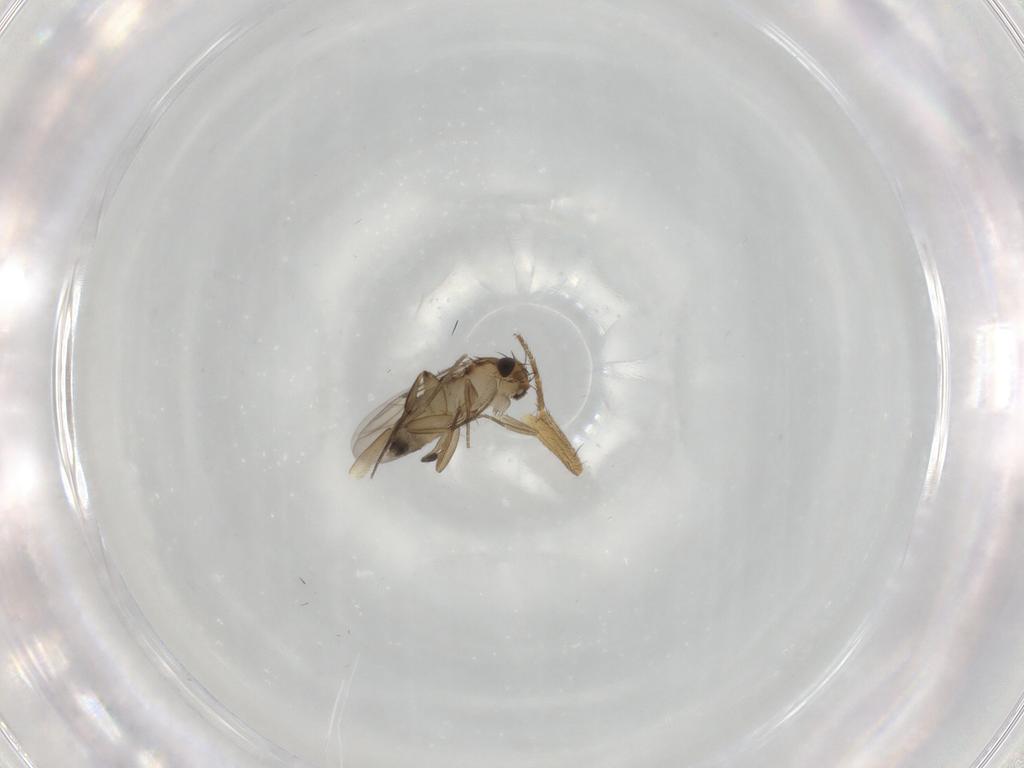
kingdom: Animalia
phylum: Arthropoda
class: Insecta
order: Diptera
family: Phoridae
